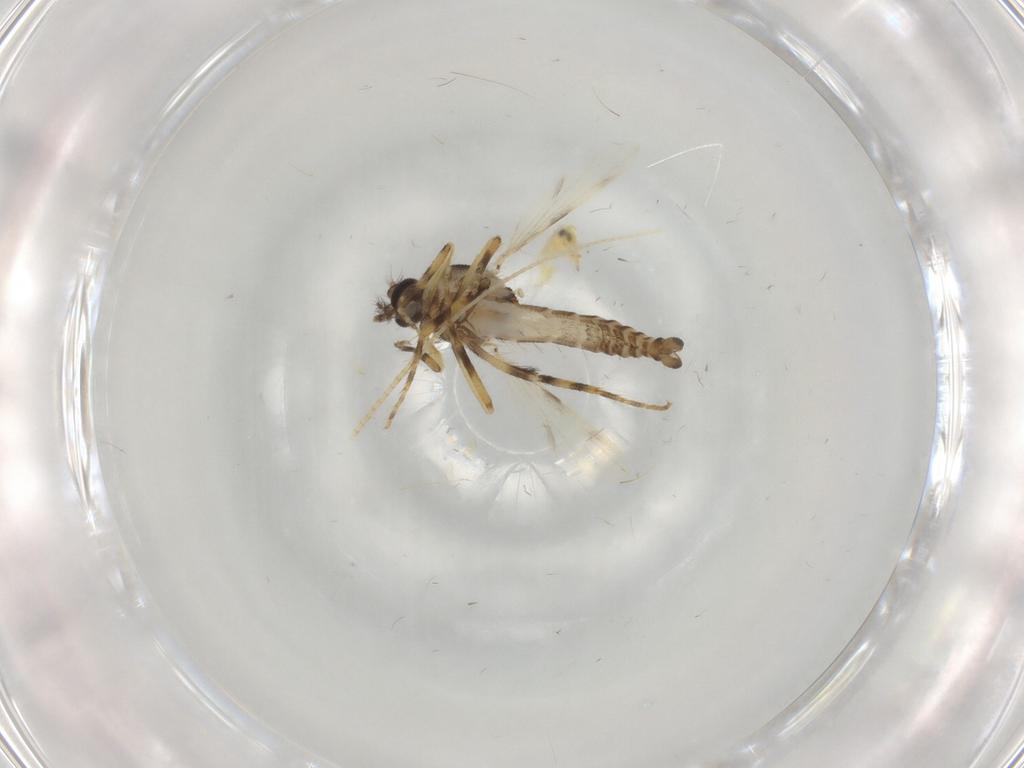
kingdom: Animalia
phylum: Arthropoda
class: Insecta
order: Diptera
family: Ceratopogonidae
